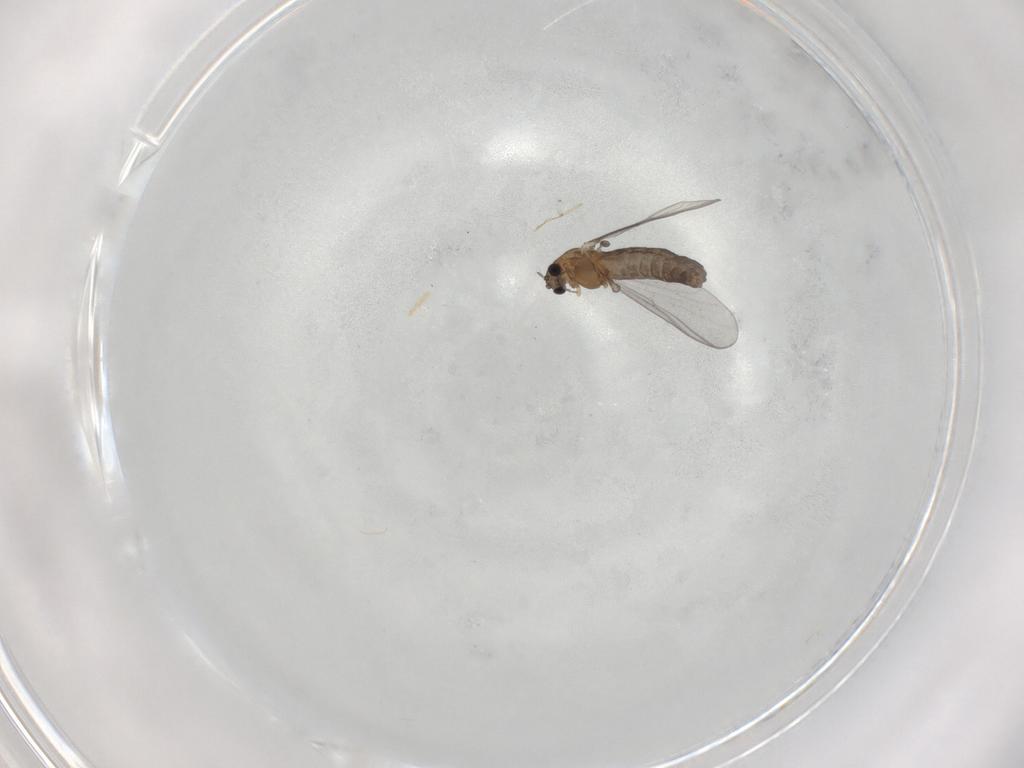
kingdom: Animalia
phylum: Arthropoda
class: Insecta
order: Diptera
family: Chironomidae
